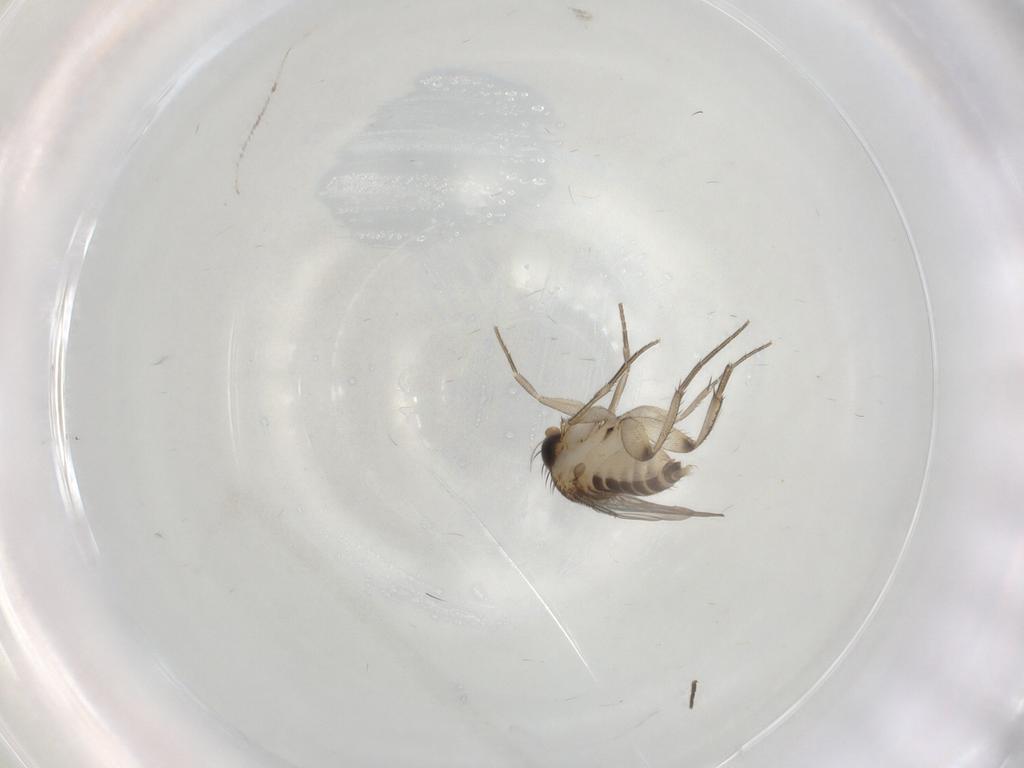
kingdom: Animalia
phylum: Arthropoda
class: Insecta
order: Diptera
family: Phoridae
